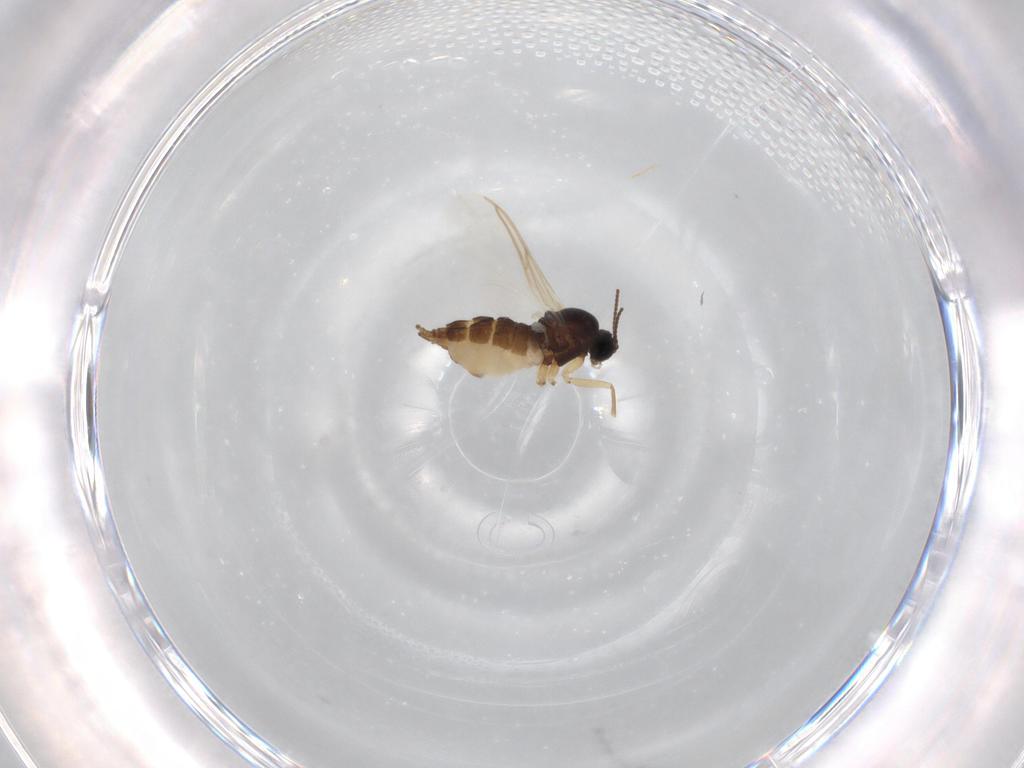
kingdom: Animalia
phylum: Arthropoda
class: Insecta
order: Diptera
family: Sciaridae
